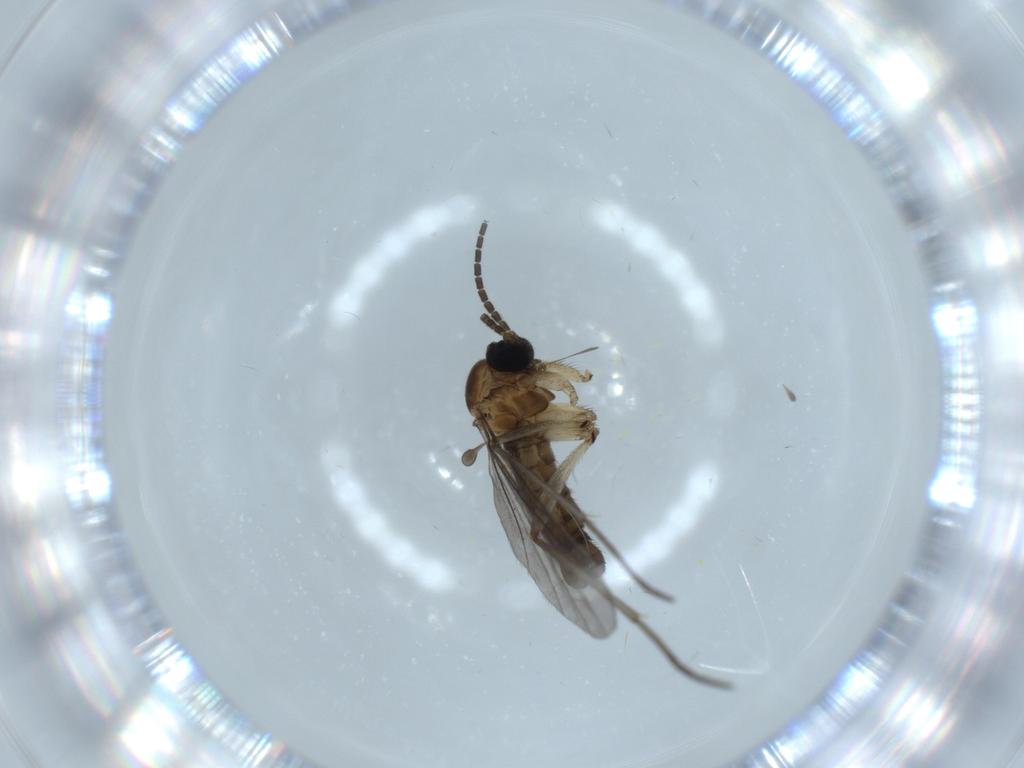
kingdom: Animalia
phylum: Arthropoda
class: Insecta
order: Diptera
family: Sciaridae
